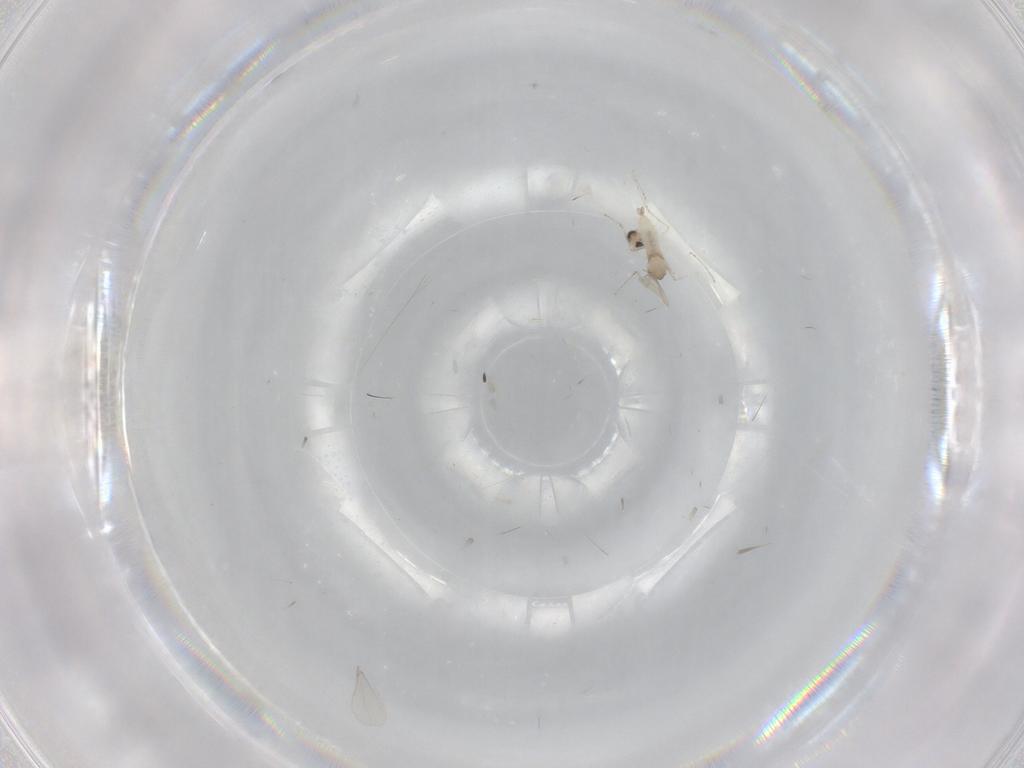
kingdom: Animalia
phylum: Arthropoda
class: Insecta
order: Diptera
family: Cecidomyiidae
